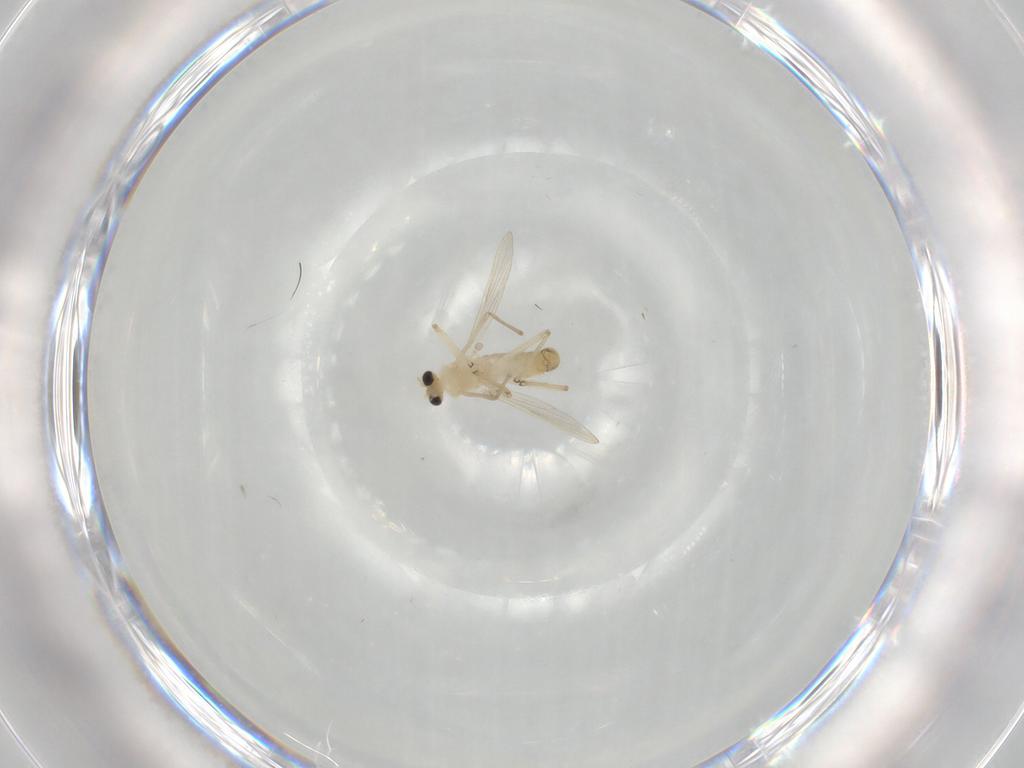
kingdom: Animalia
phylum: Arthropoda
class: Insecta
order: Diptera
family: Chironomidae
